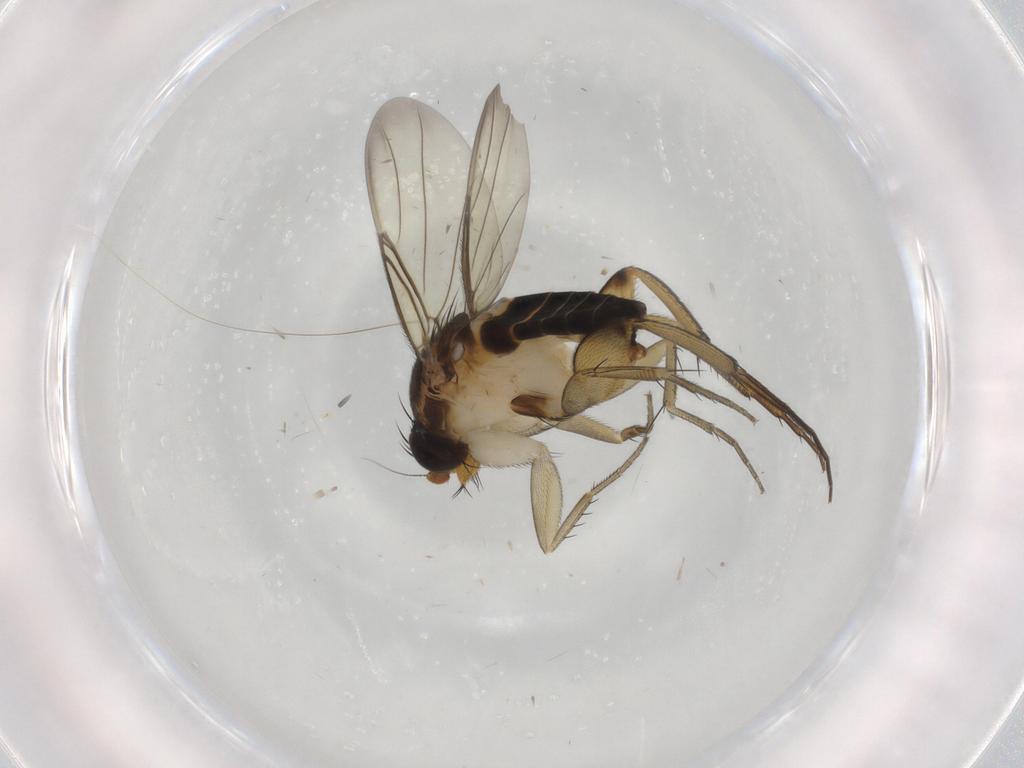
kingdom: Animalia
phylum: Arthropoda
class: Insecta
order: Diptera
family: Phoridae
